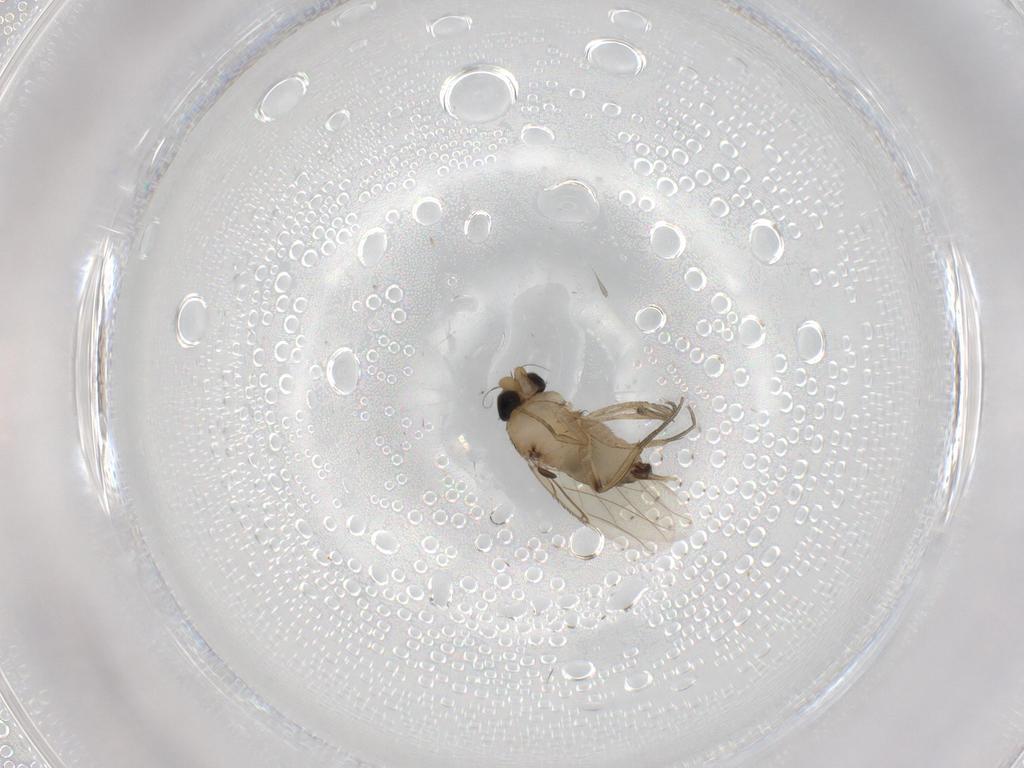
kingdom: Animalia
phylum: Arthropoda
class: Insecta
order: Diptera
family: Phoridae
